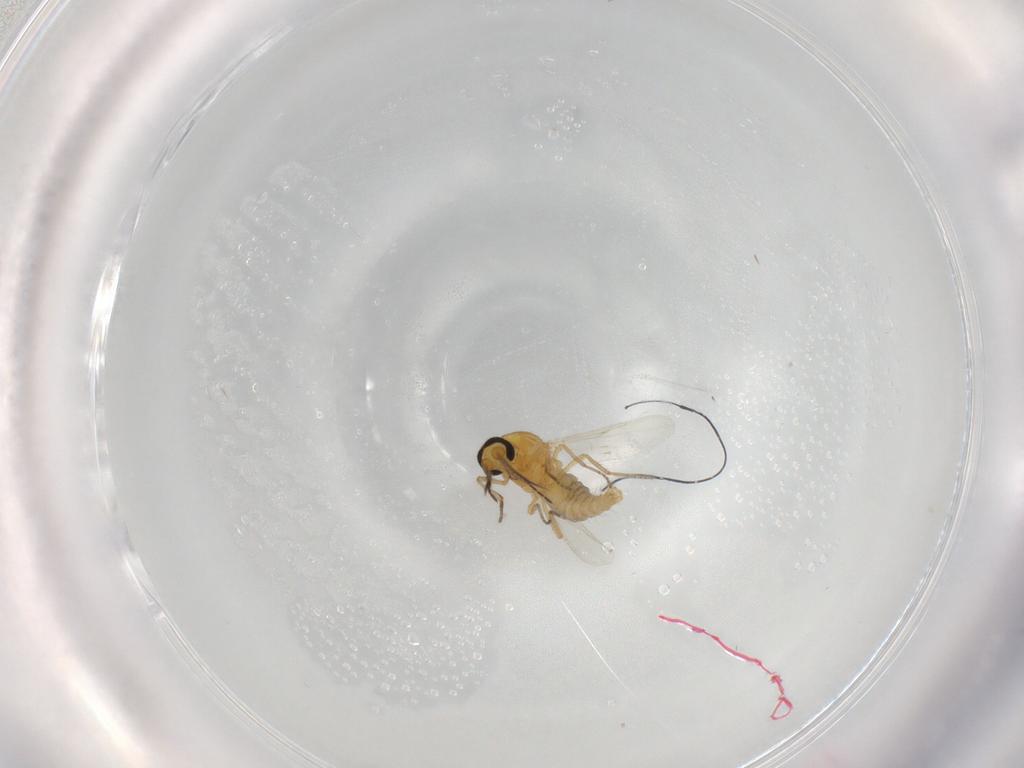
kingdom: Animalia
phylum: Arthropoda
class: Insecta
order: Diptera
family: Ceratopogonidae
